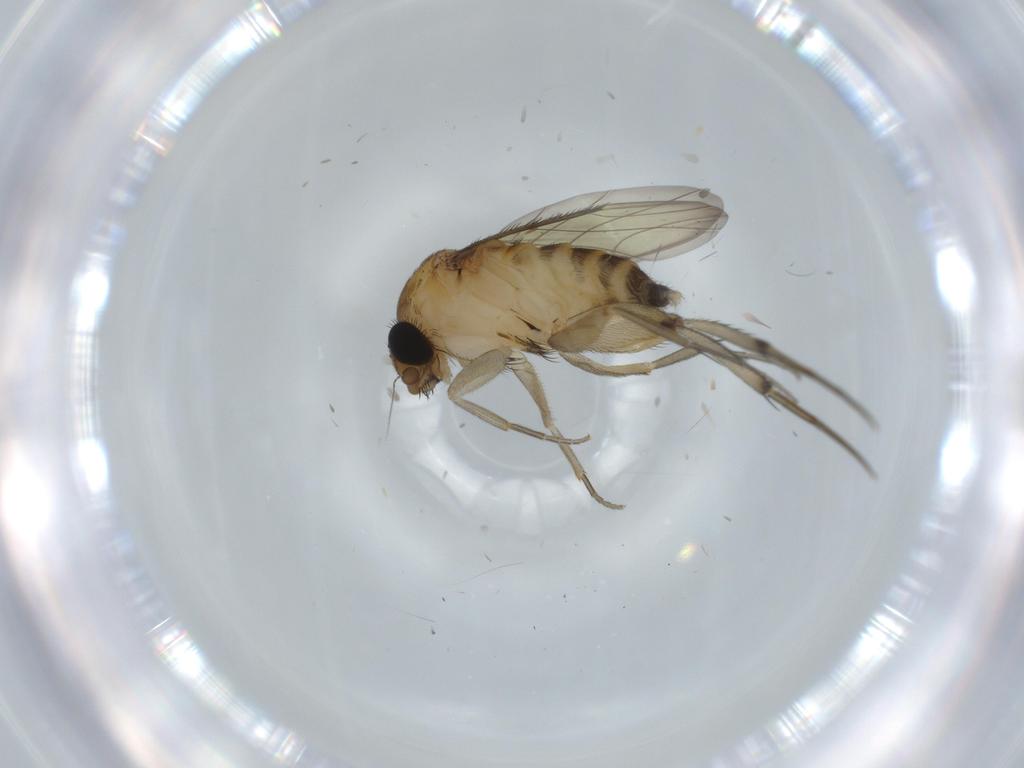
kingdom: Animalia
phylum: Arthropoda
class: Insecta
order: Diptera
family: Phoridae
